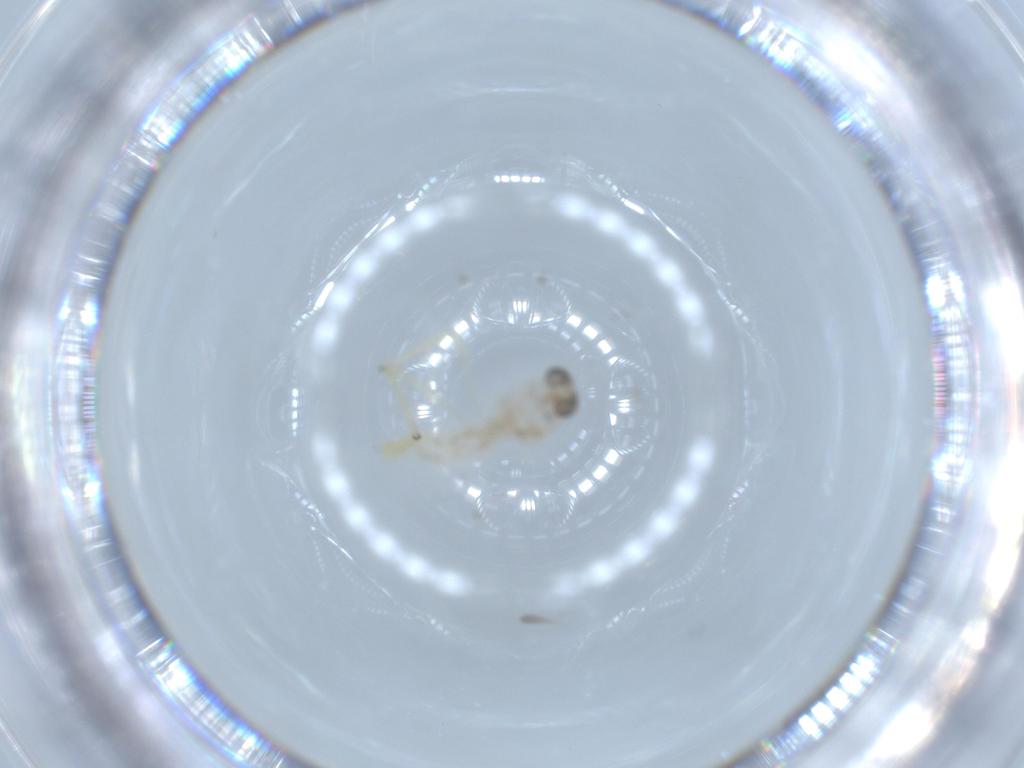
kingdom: Animalia
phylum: Arthropoda
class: Insecta
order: Diptera
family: Chironomidae
